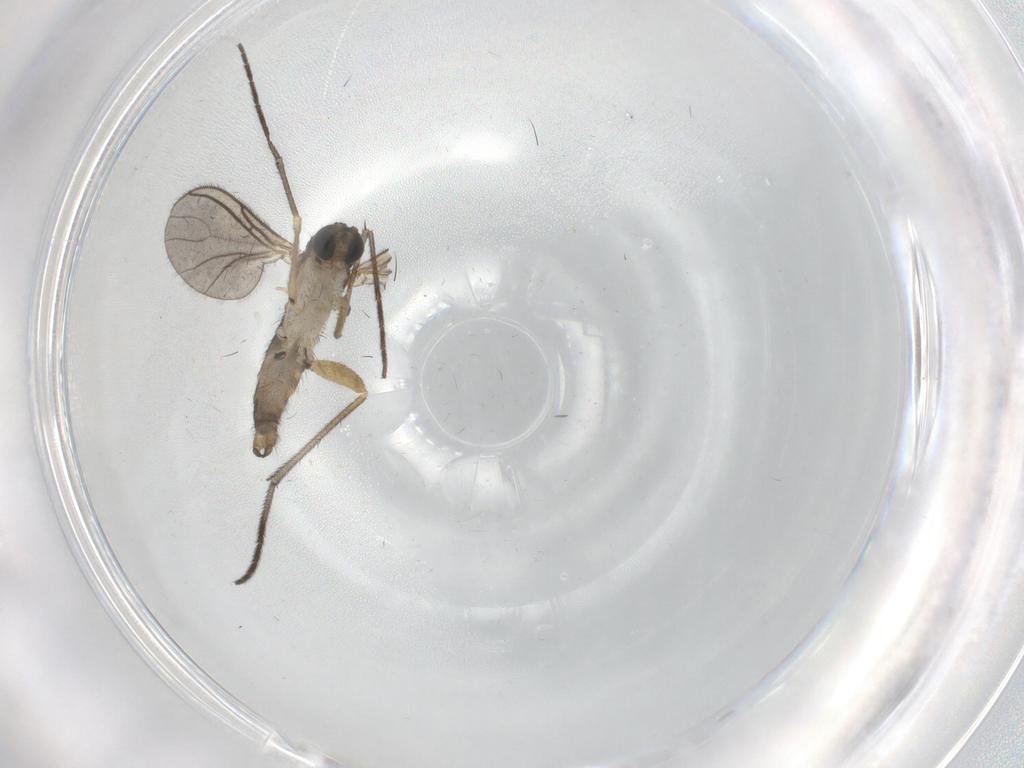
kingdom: Animalia
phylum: Arthropoda
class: Insecta
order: Diptera
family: Sciaridae
